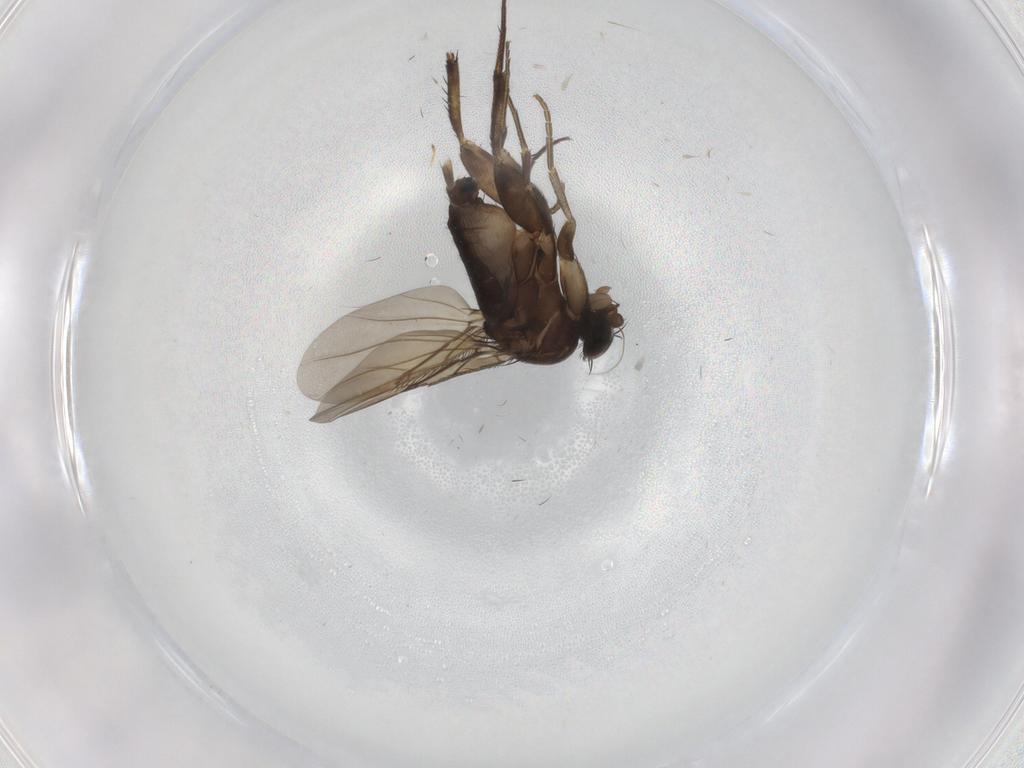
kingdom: Animalia
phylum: Arthropoda
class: Insecta
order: Diptera
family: Phoridae
